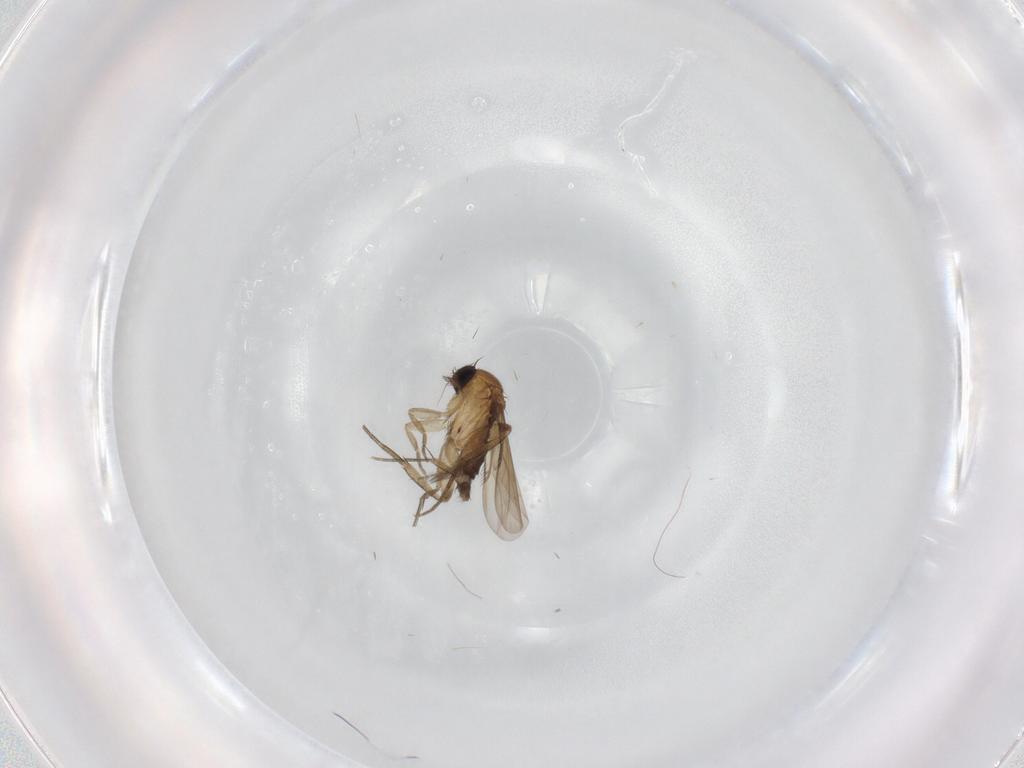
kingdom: Animalia
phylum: Arthropoda
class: Insecta
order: Diptera
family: Phoridae
